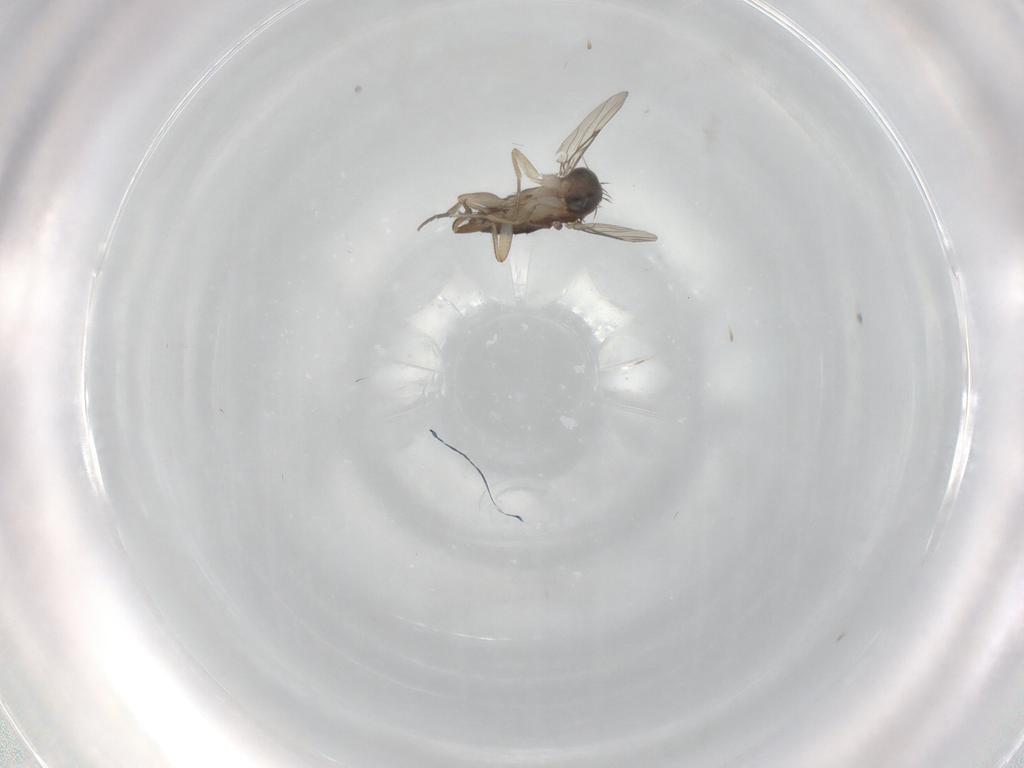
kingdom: Animalia
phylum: Arthropoda
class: Insecta
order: Diptera
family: Phoridae
